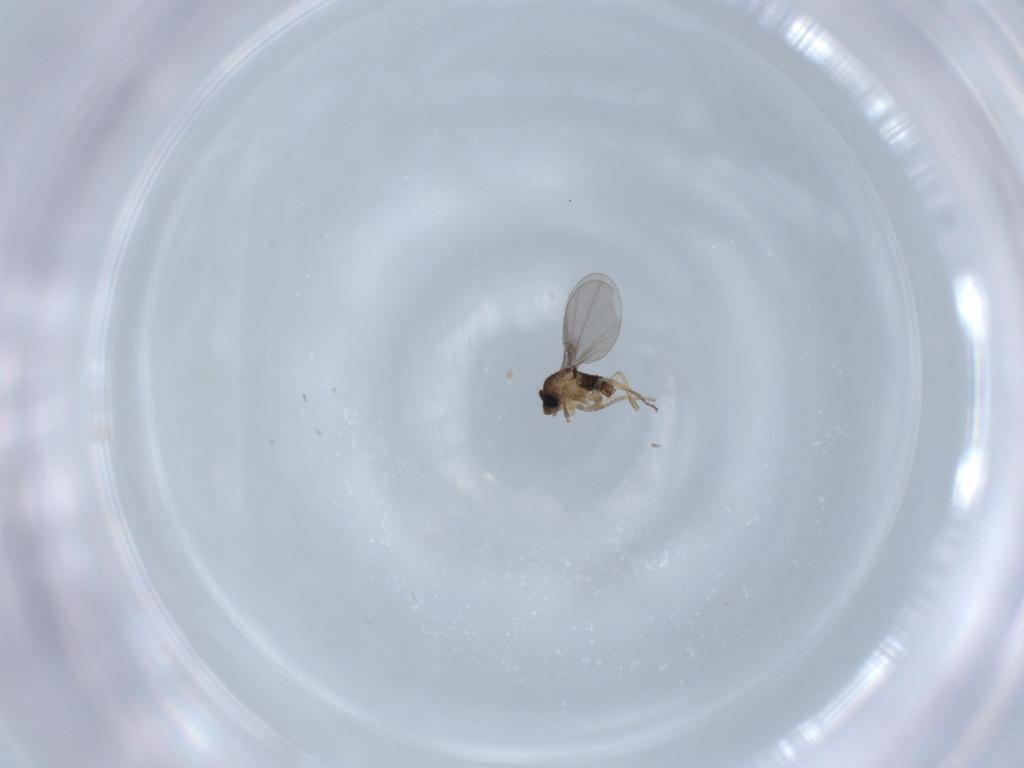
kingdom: Animalia
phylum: Arthropoda
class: Insecta
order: Diptera
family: Phoridae
